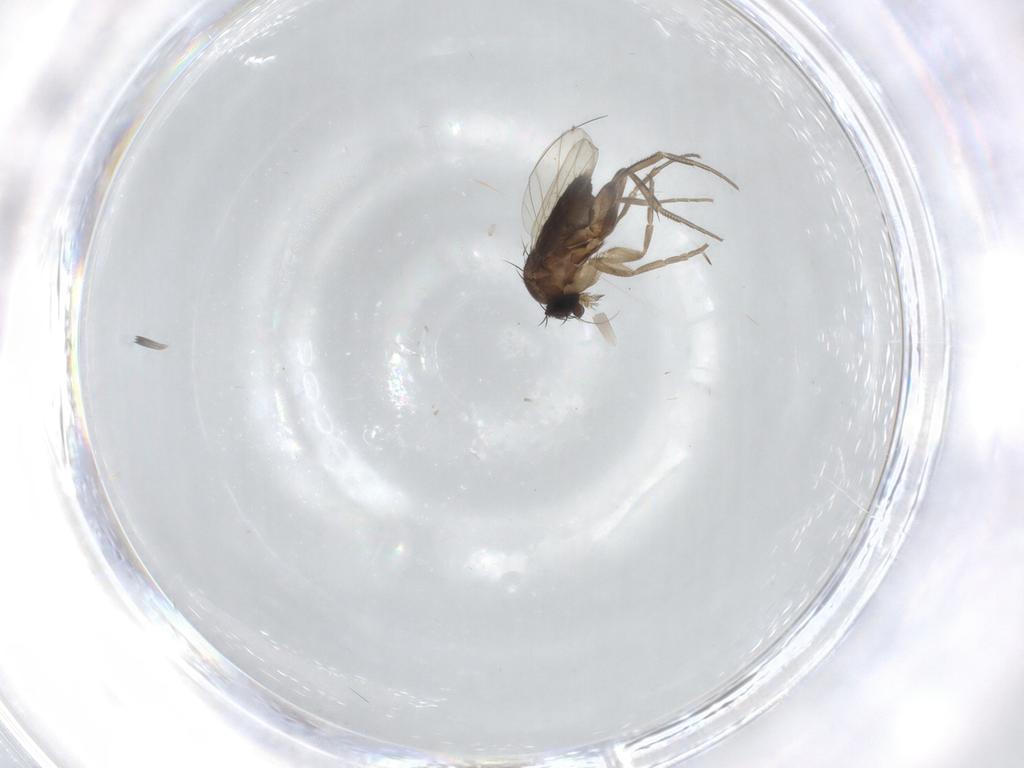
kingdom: Animalia
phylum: Arthropoda
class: Insecta
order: Diptera
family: Phoridae
